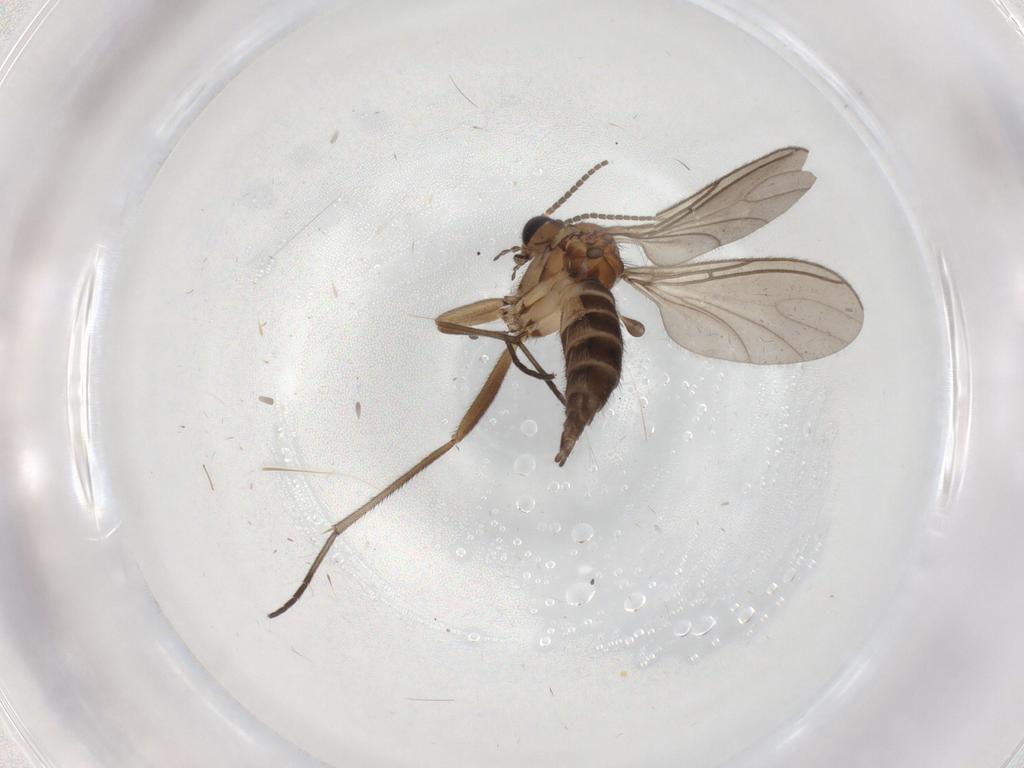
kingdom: Animalia
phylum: Arthropoda
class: Insecta
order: Diptera
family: Sciaridae
